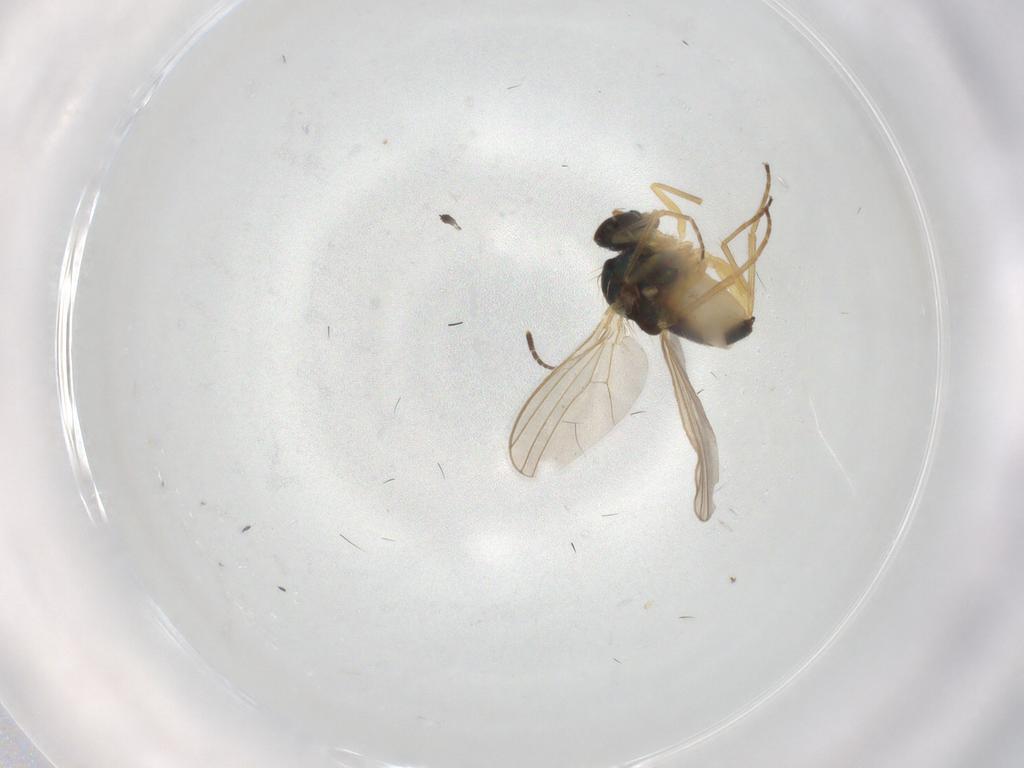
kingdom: Animalia
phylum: Arthropoda
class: Insecta
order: Diptera
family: Dolichopodidae
